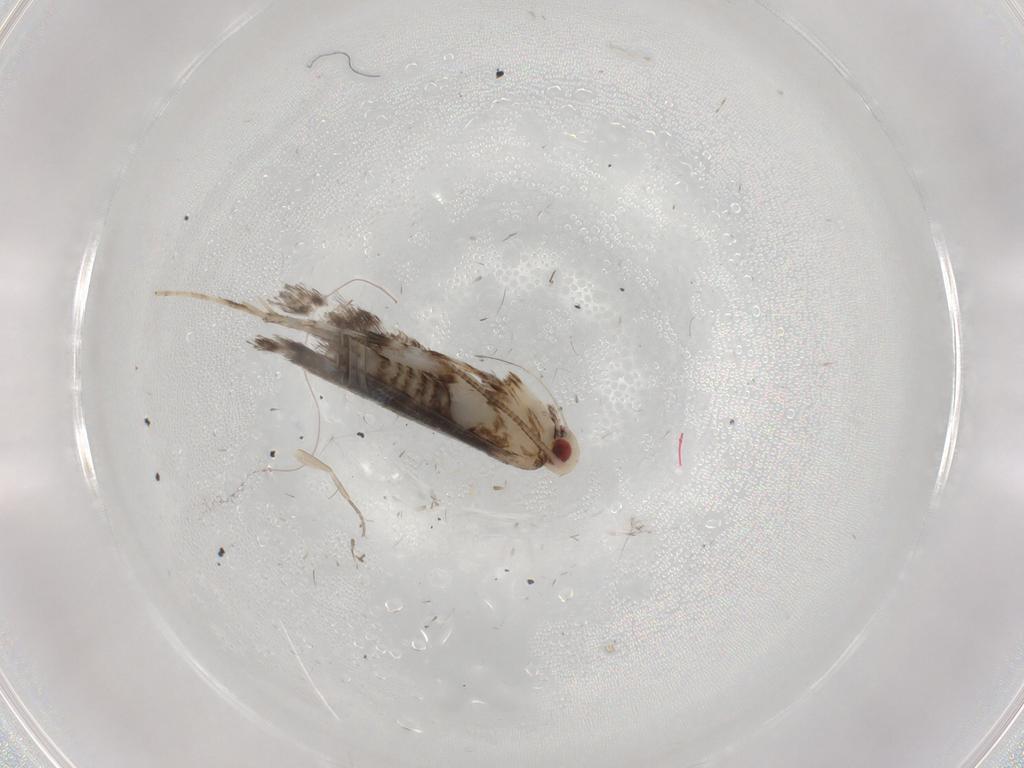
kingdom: Animalia
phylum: Arthropoda
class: Insecta
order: Lepidoptera
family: Gracillariidae
